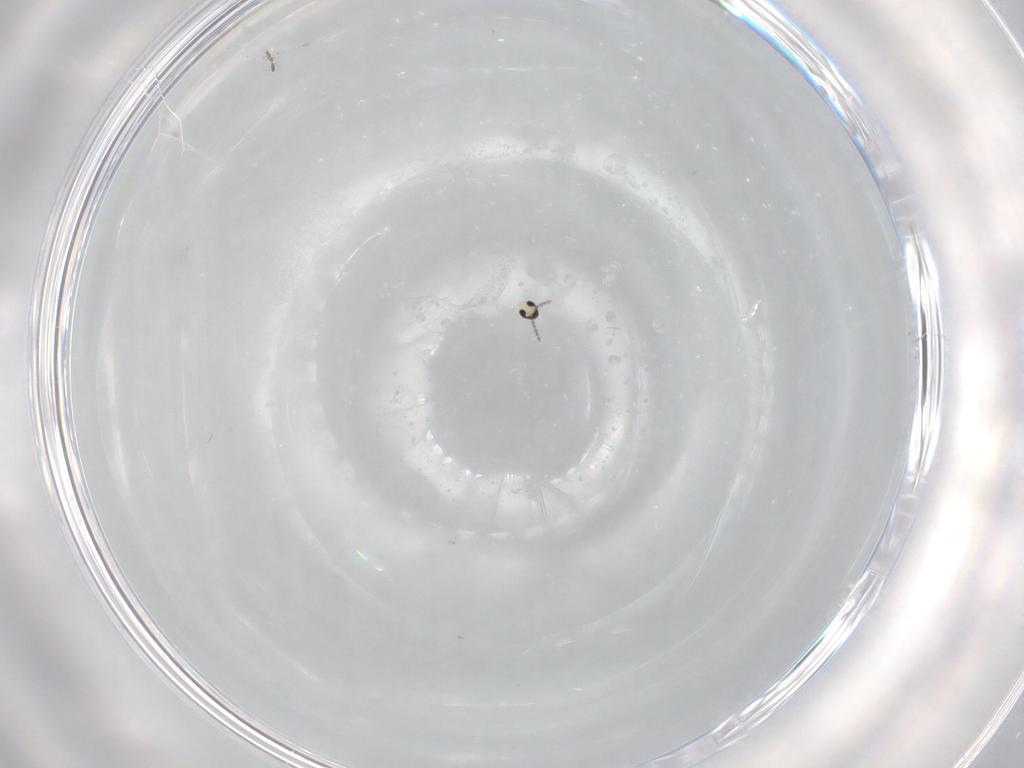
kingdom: Animalia
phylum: Arthropoda
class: Insecta
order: Diptera
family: Cecidomyiidae
